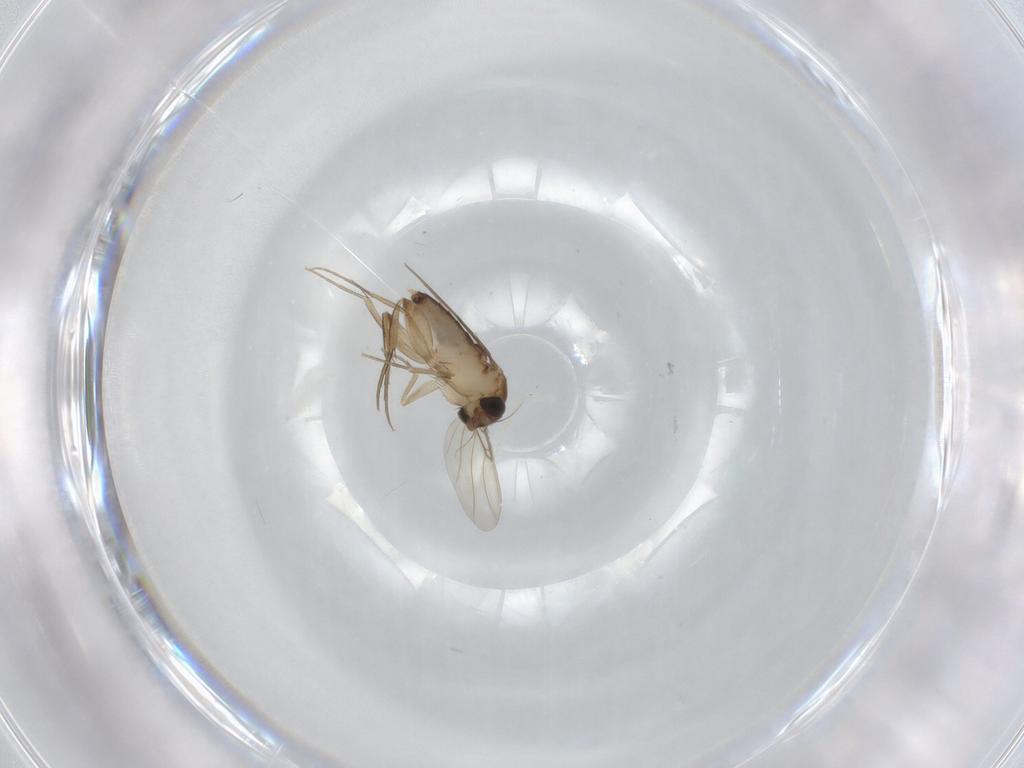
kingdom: Animalia
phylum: Arthropoda
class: Insecta
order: Diptera
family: Phoridae
